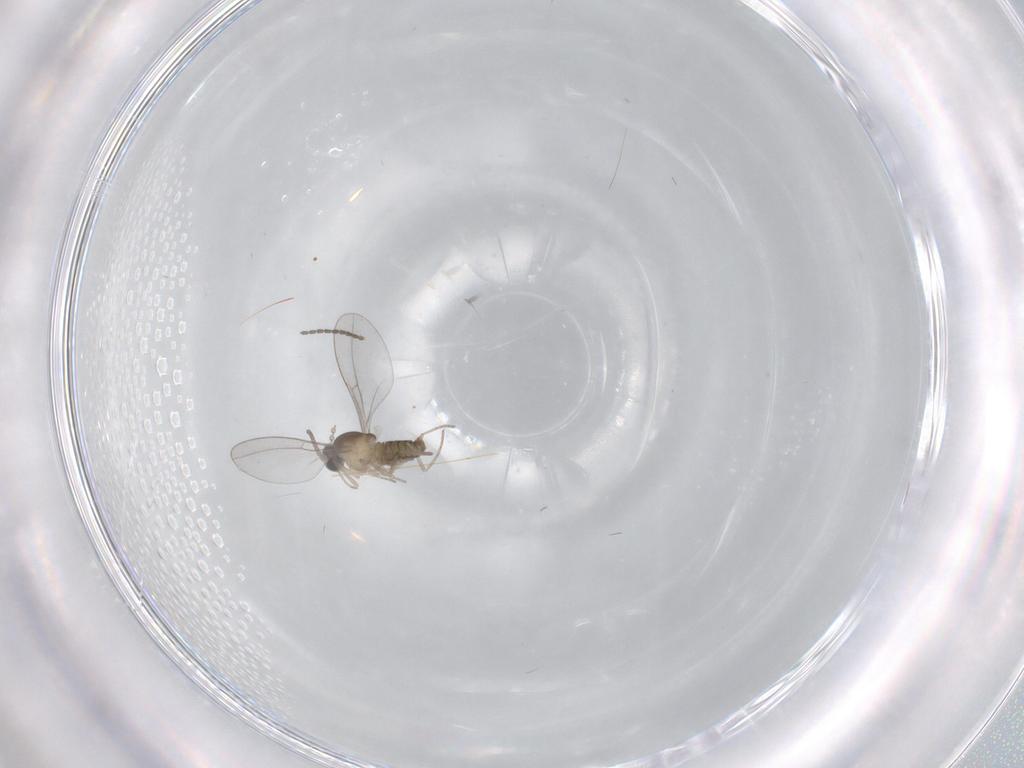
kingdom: Animalia
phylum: Arthropoda
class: Insecta
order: Diptera
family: Cecidomyiidae
